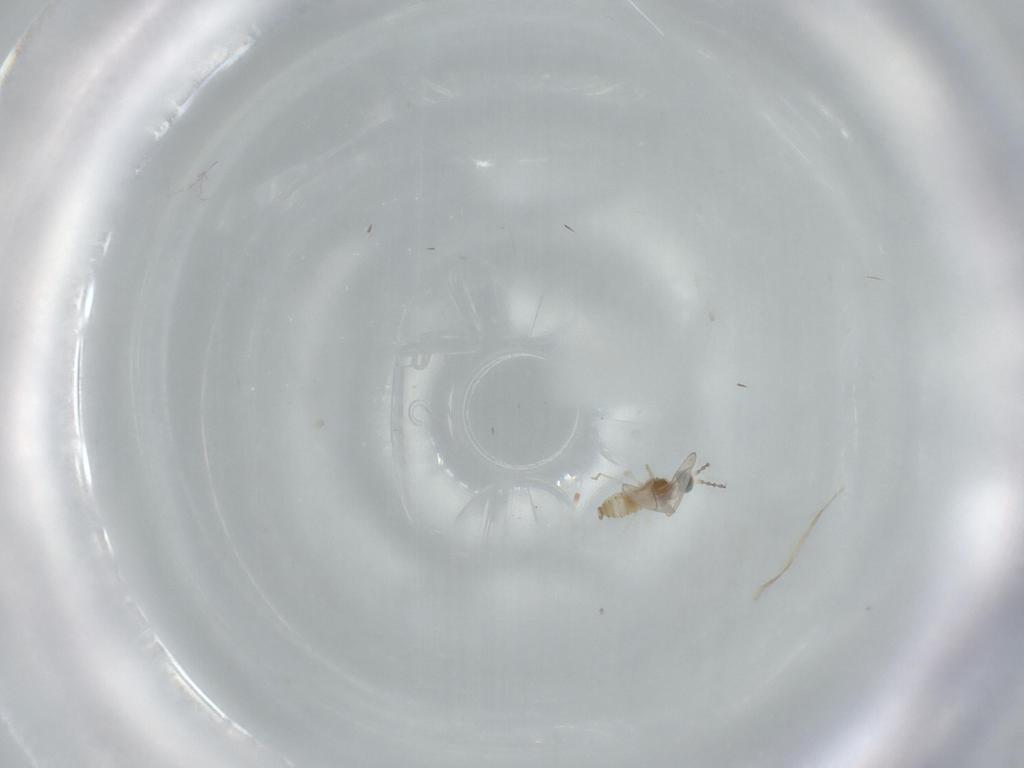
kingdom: Animalia
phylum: Arthropoda
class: Insecta
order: Diptera
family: Cecidomyiidae
